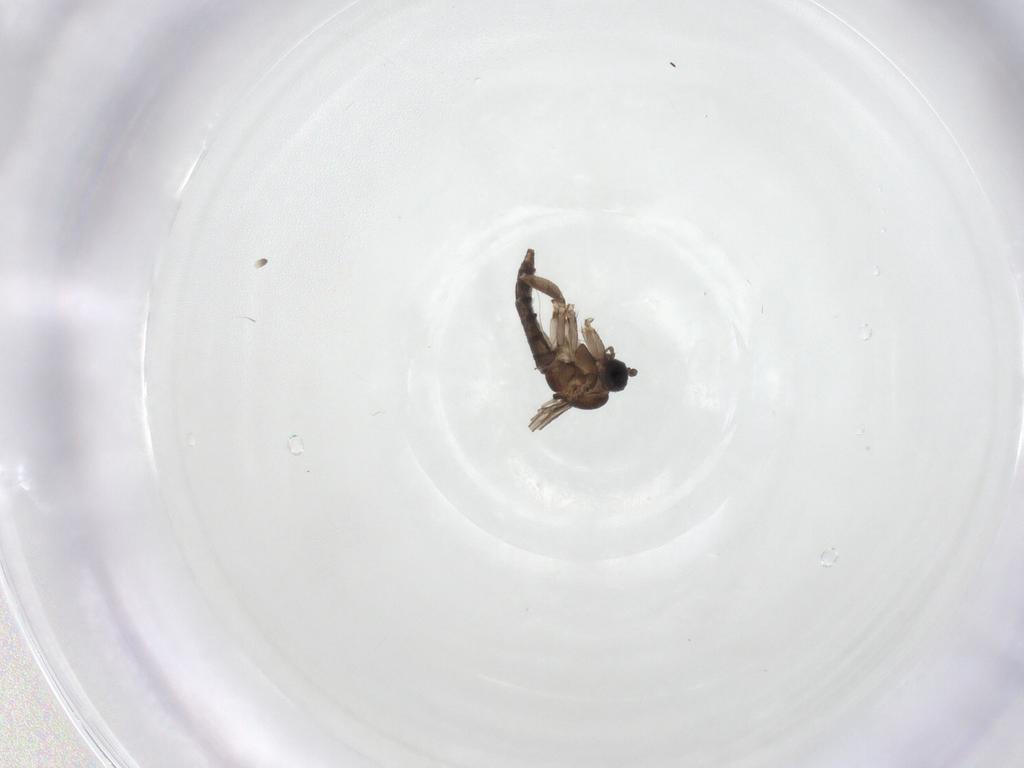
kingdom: Animalia
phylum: Arthropoda
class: Insecta
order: Diptera
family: Sciaridae
